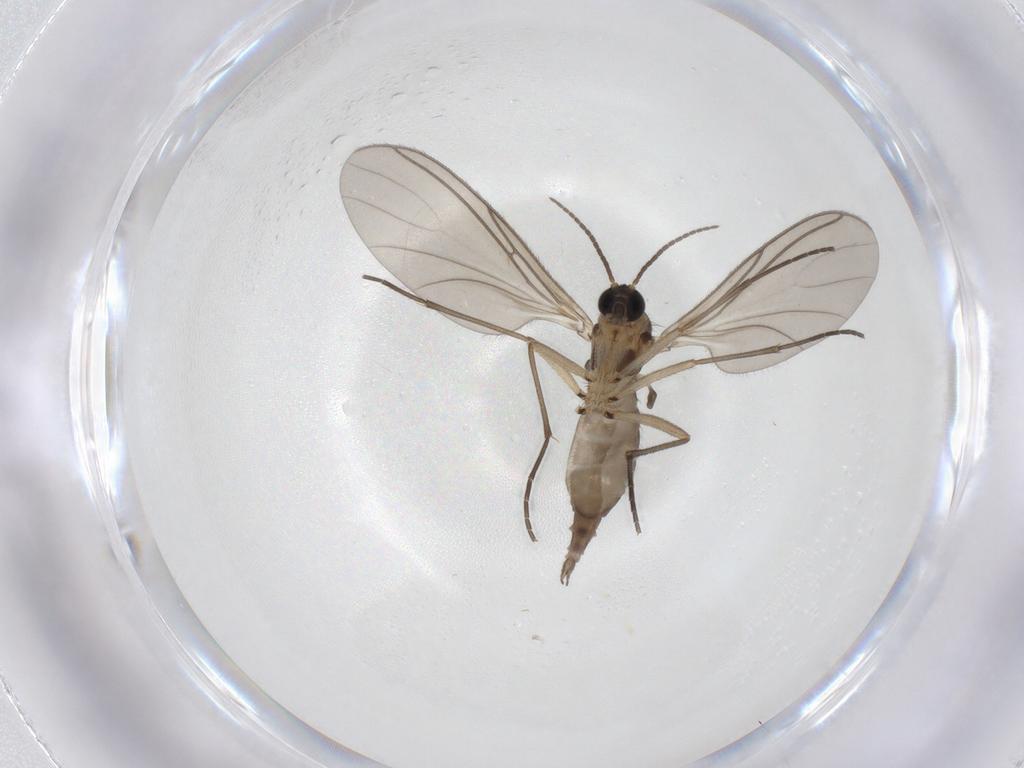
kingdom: Animalia
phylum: Arthropoda
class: Insecta
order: Diptera
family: Sciaridae
